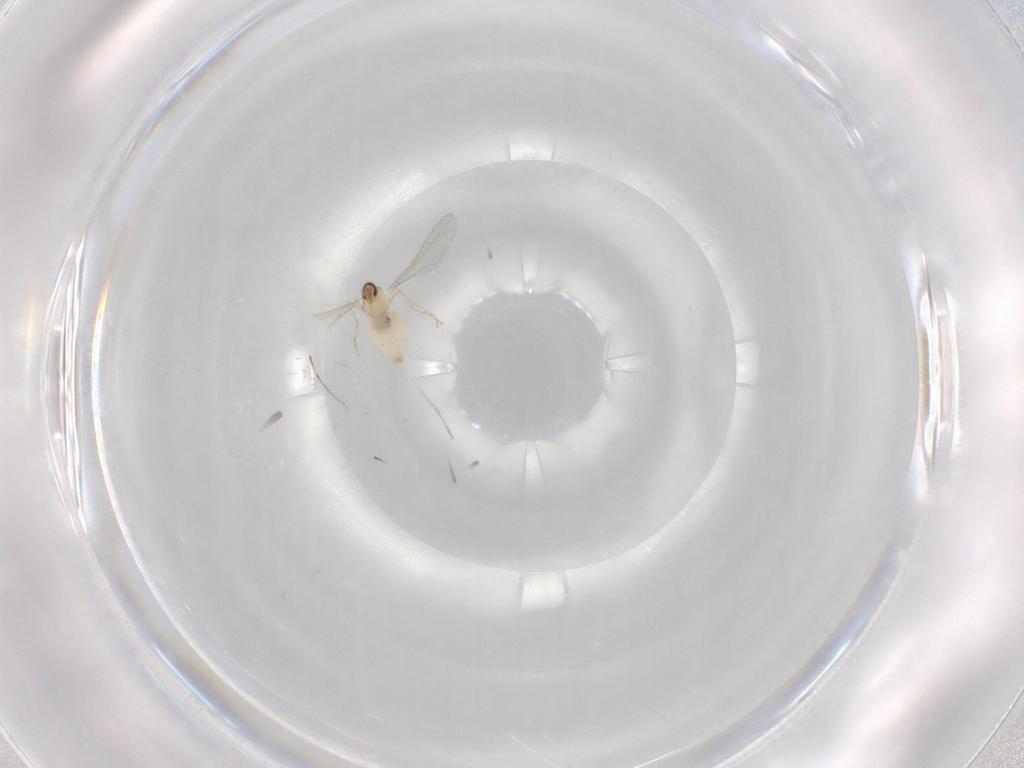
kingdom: Animalia
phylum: Arthropoda
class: Insecta
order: Diptera
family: Cecidomyiidae
